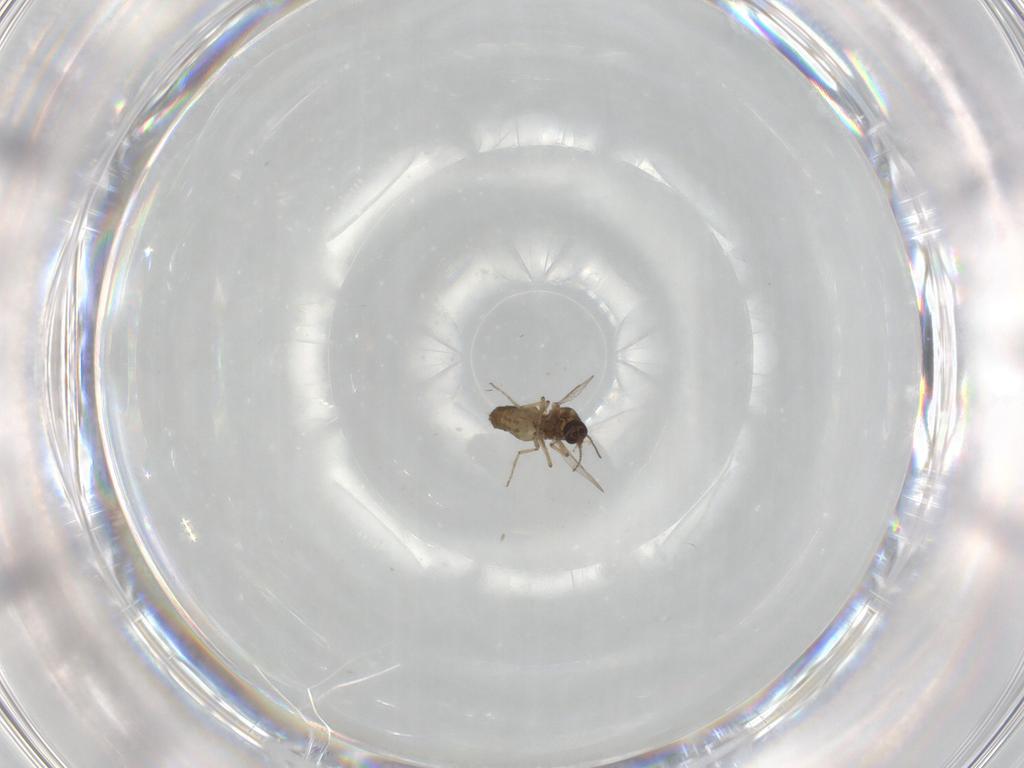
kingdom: Animalia
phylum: Arthropoda
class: Insecta
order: Diptera
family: Ceratopogonidae
